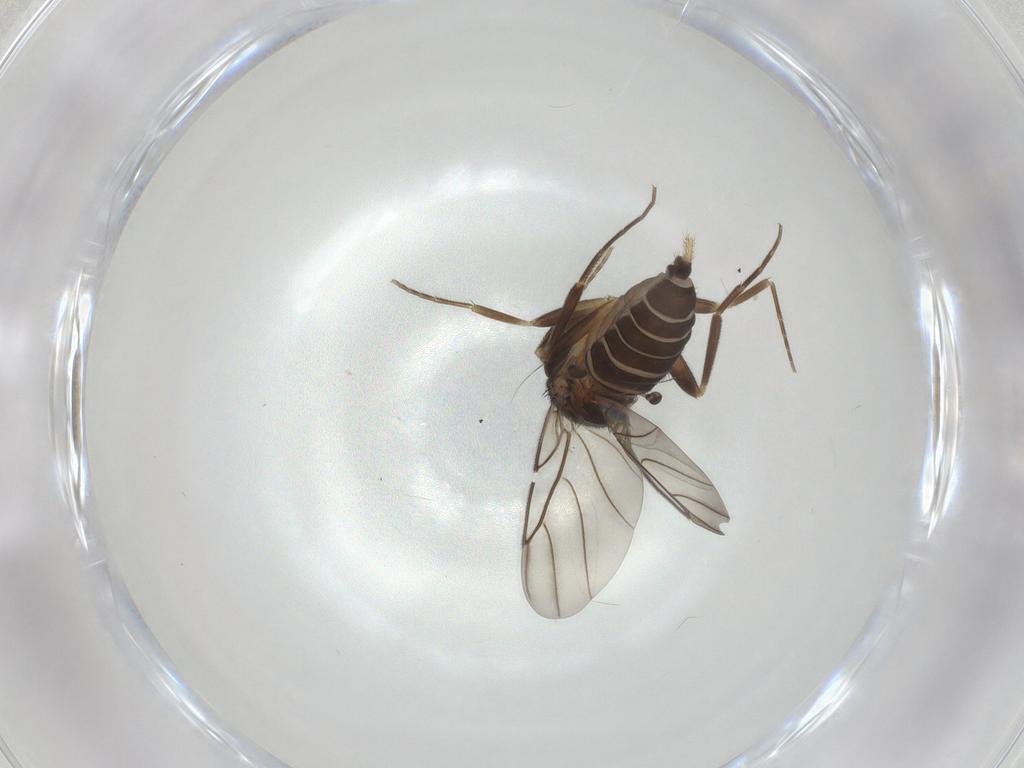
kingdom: Animalia
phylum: Arthropoda
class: Insecta
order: Diptera
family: Phoridae
